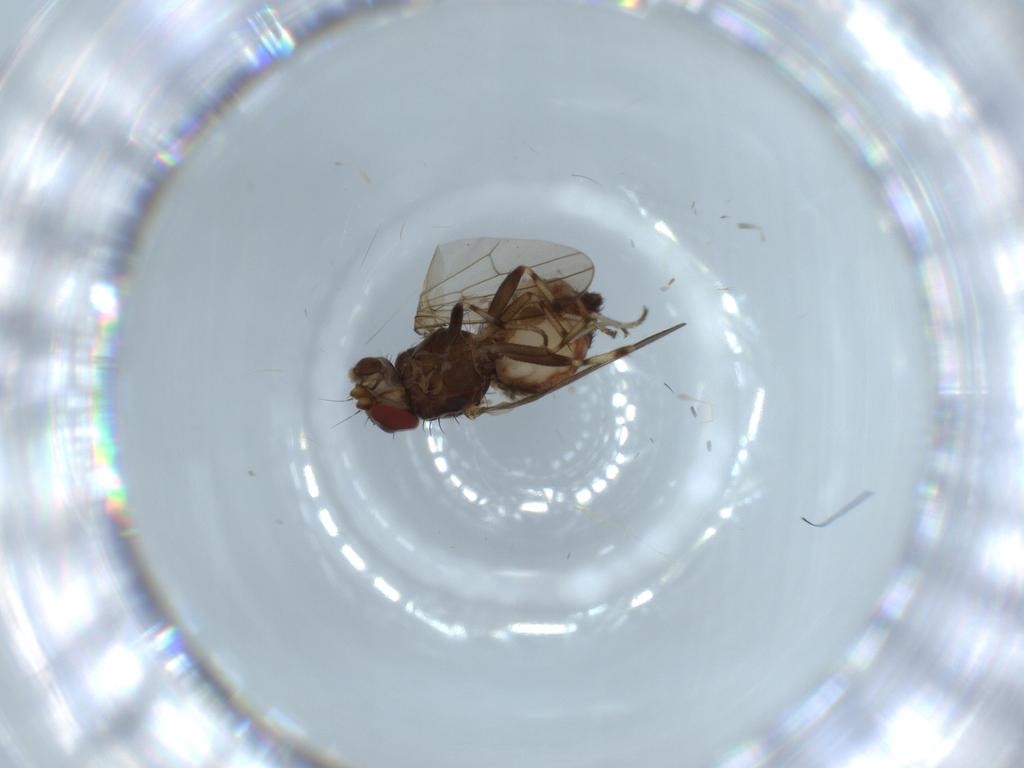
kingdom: Animalia
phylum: Arthropoda
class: Insecta
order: Diptera
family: Heleomyzidae
